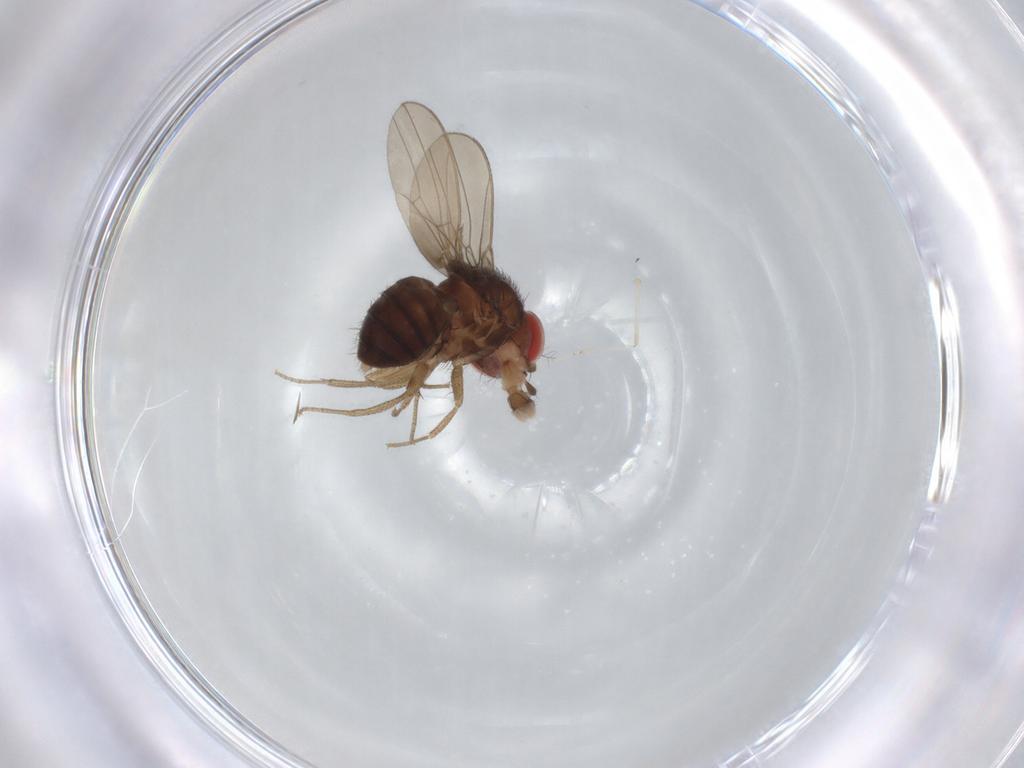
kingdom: Animalia
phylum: Arthropoda
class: Insecta
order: Diptera
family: Drosophilidae
